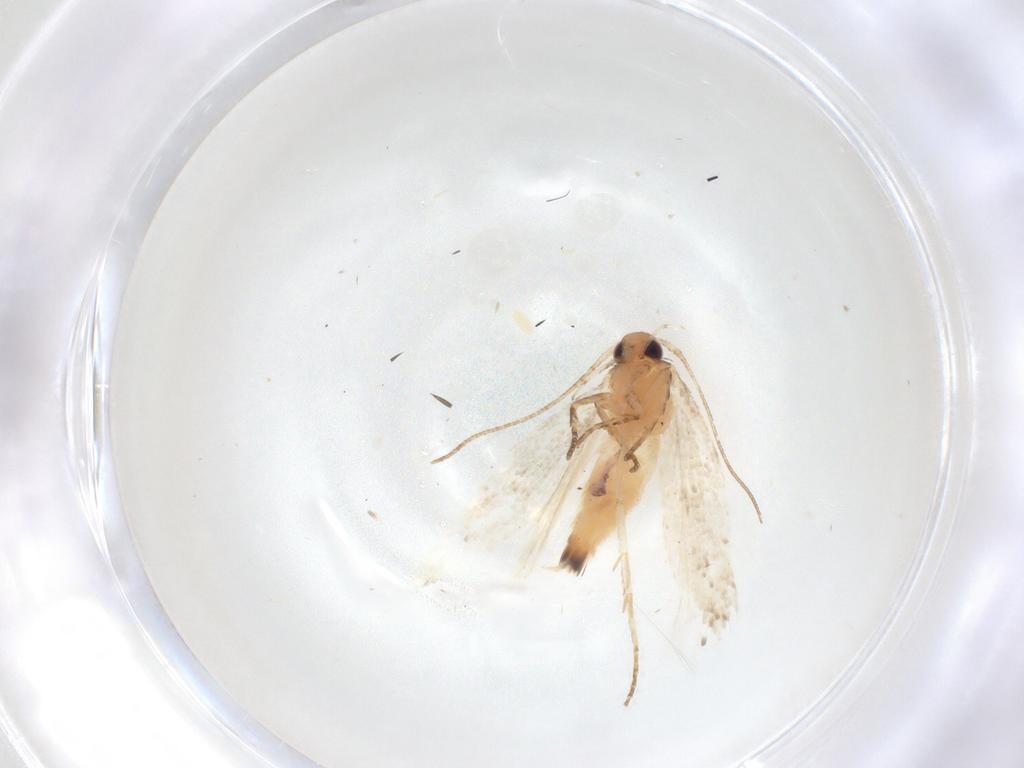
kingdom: Animalia
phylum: Arthropoda
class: Insecta
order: Lepidoptera
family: Gelechiidae
